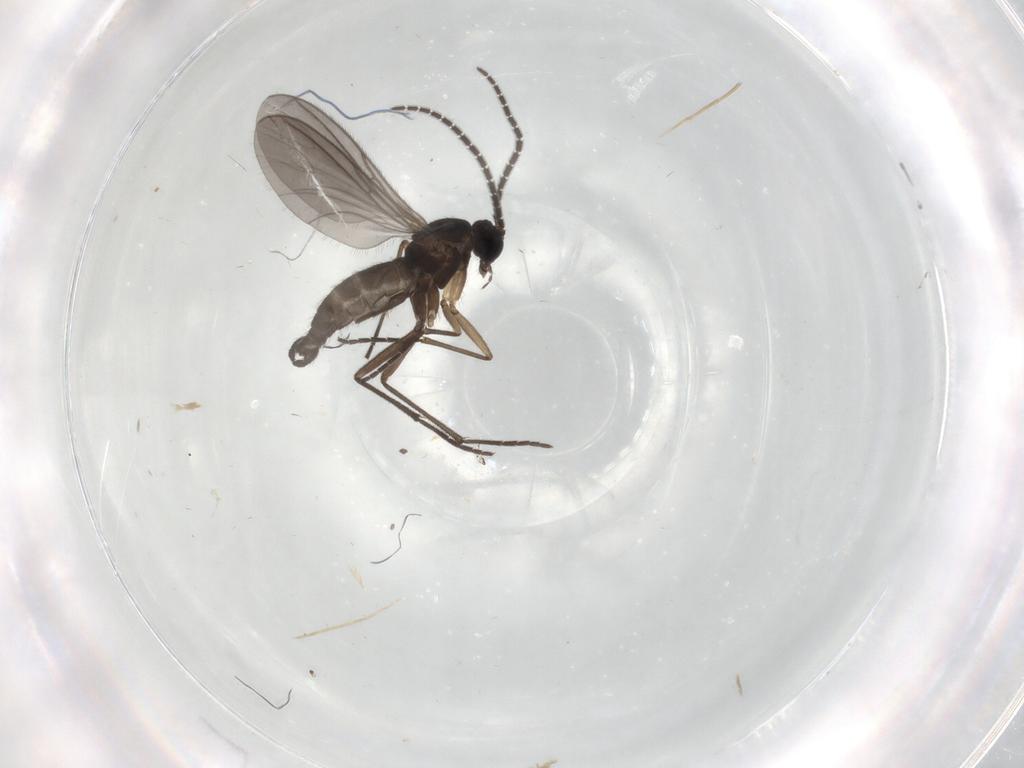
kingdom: Animalia
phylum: Arthropoda
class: Insecta
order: Diptera
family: Sciaridae
